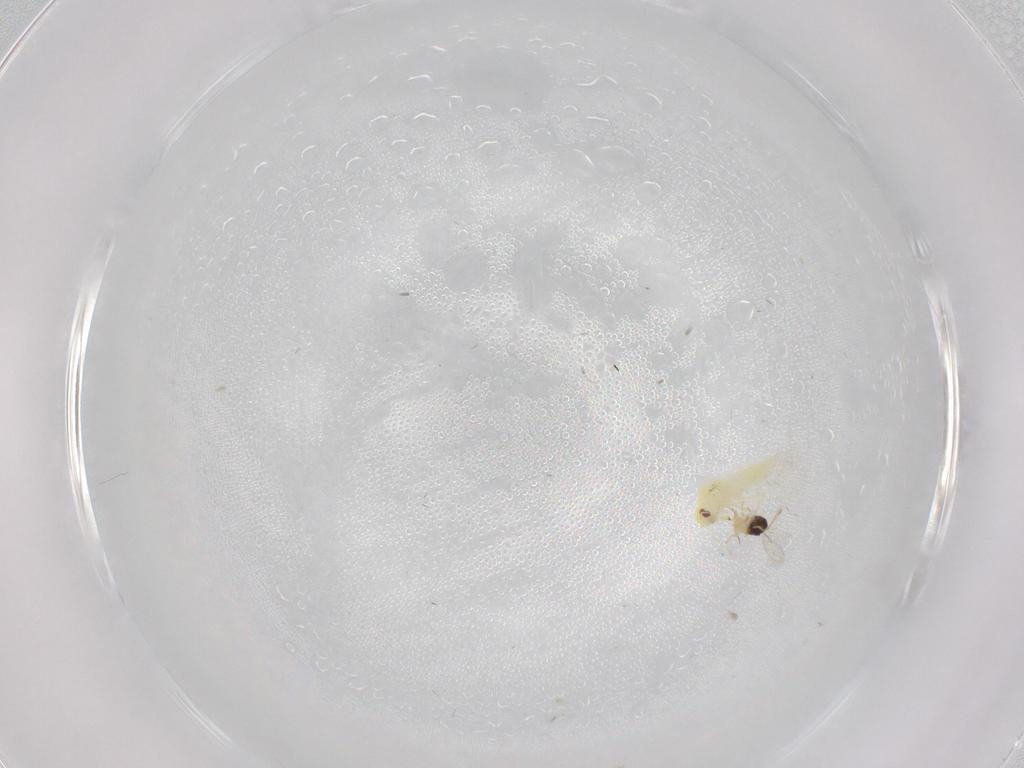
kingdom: Animalia
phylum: Arthropoda
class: Insecta
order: Hemiptera
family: Aleyrodidae
